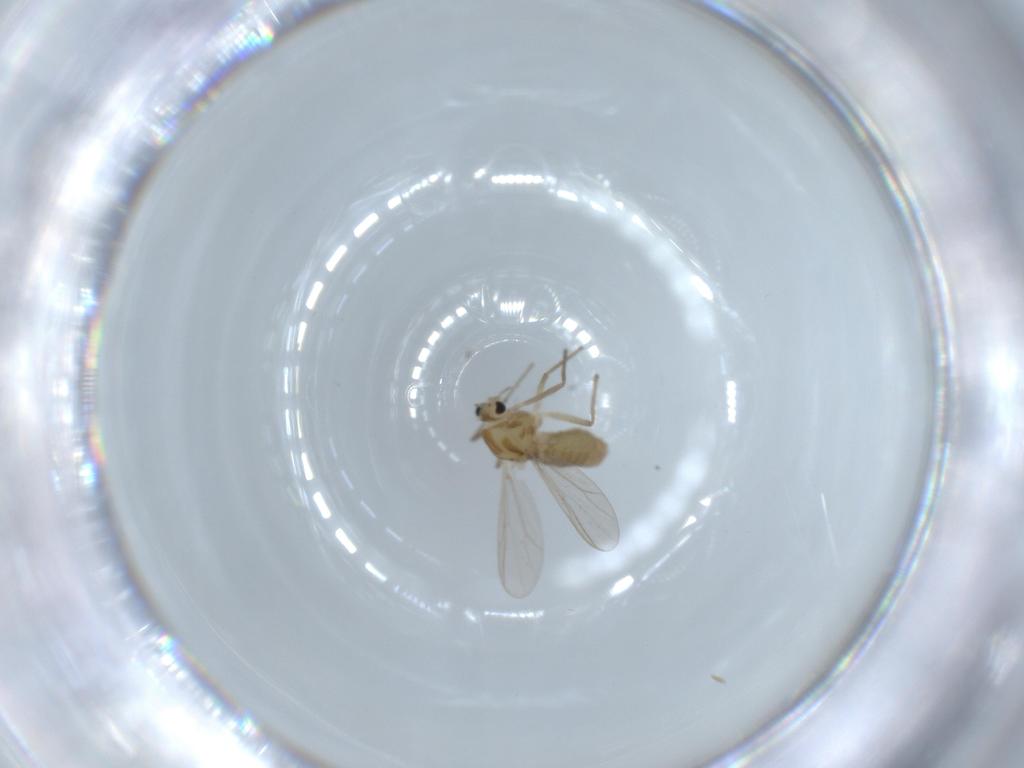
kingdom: Animalia
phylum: Arthropoda
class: Insecta
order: Diptera
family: Chironomidae
